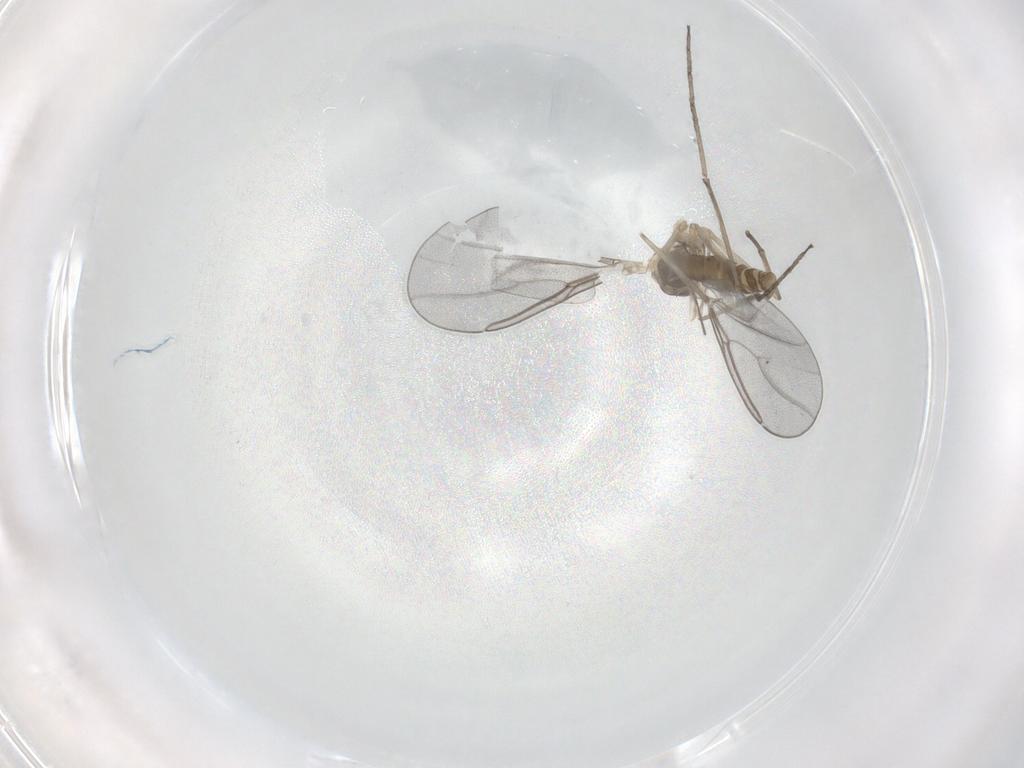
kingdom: Animalia
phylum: Arthropoda
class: Insecta
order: Diptera
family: Cecidomyiidae
